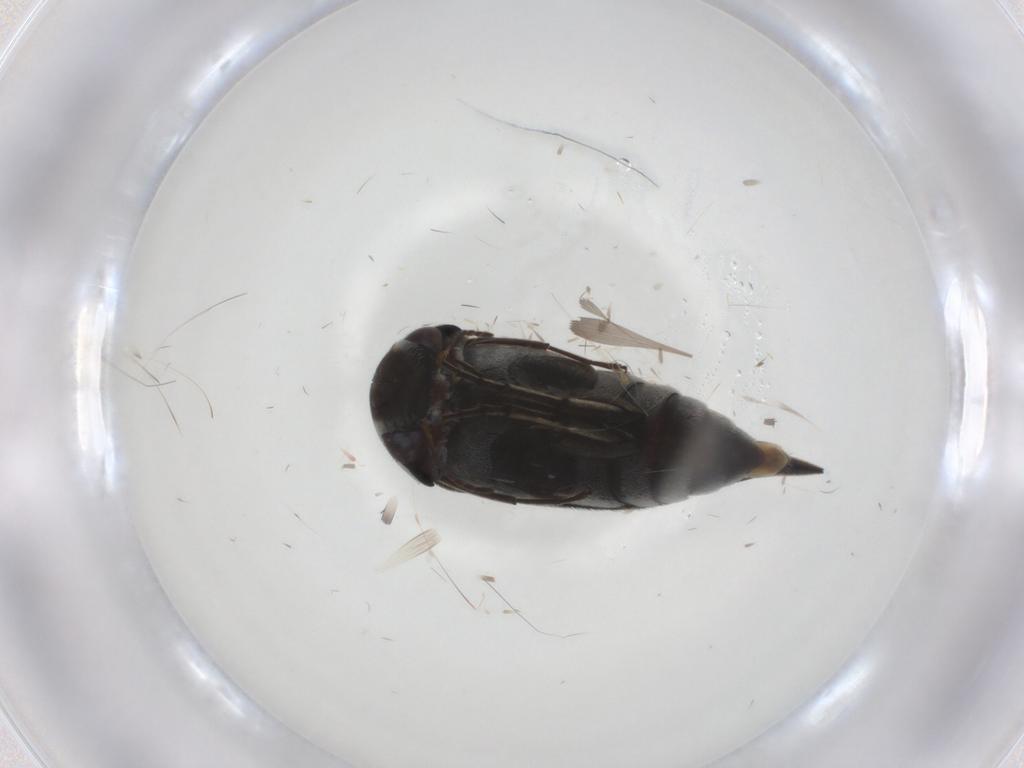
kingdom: Animalia
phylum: Arthropoda
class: Insecta
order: Coleoptera
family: Mordellidae
